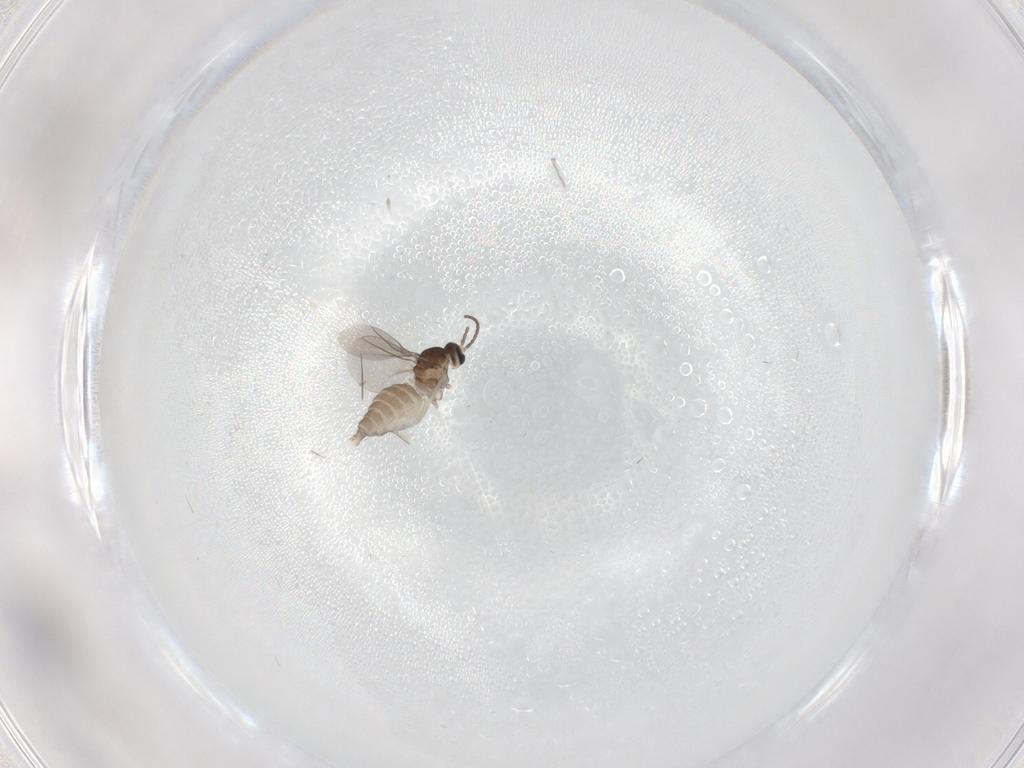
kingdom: Animalia
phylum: Arthropoda
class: Insecta
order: Diptera
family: Cecidomyiidae
